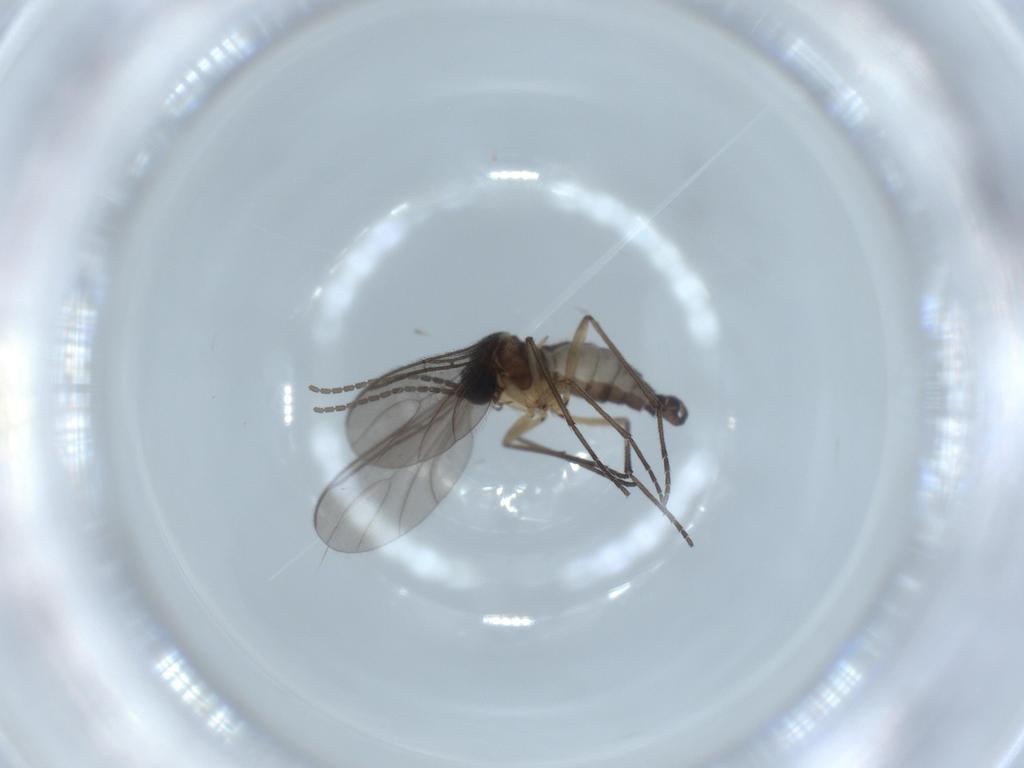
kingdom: Animalia
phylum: Arthropoda
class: Insecta
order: Diptera
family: Sciaridae
